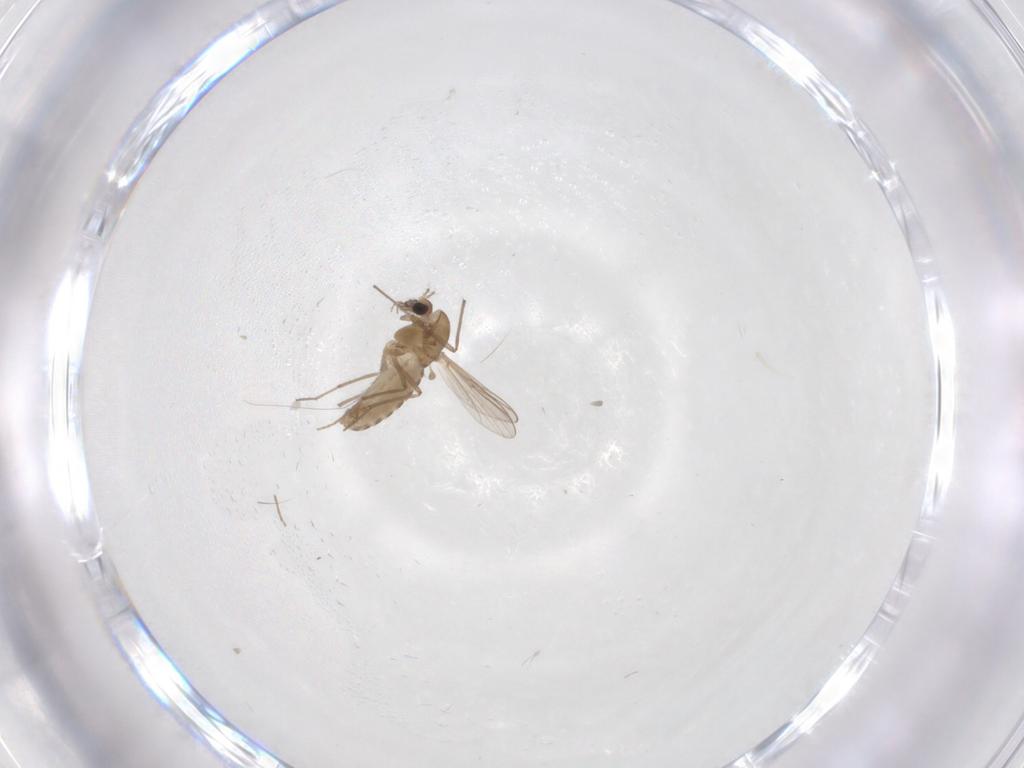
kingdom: Animalia
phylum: Arthropoda
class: Insecta
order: Diptera
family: Chironomidae
